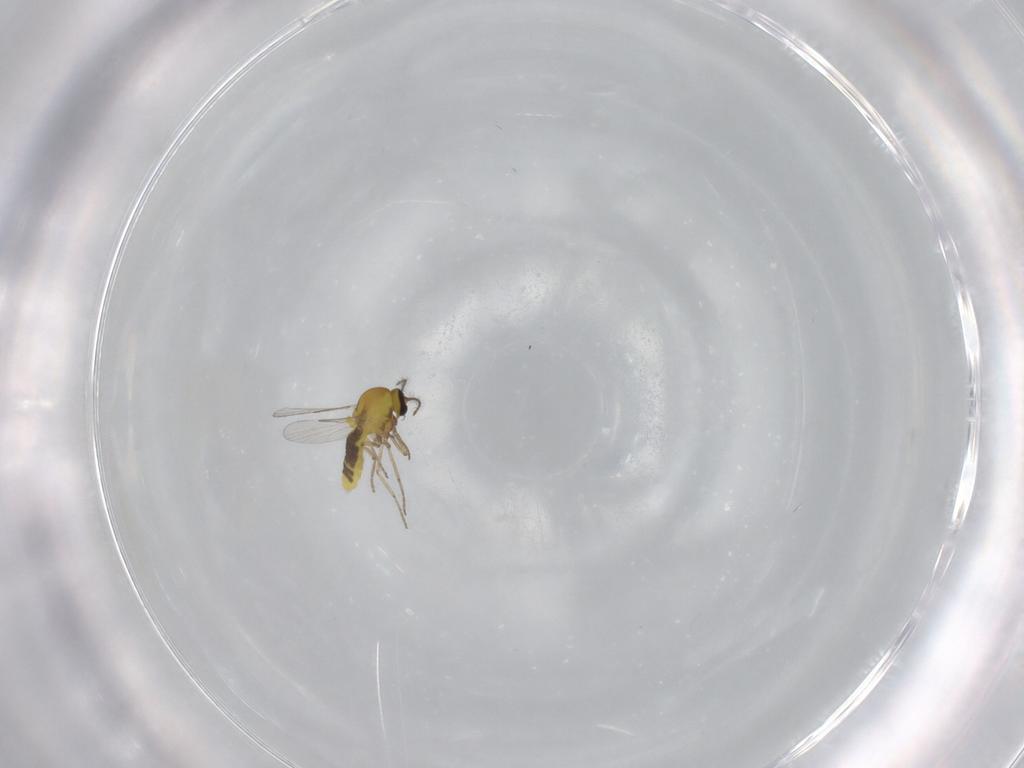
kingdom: Animalia
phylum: Arthropoda
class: Insecta
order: Diptera
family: Ceratopogonidae
